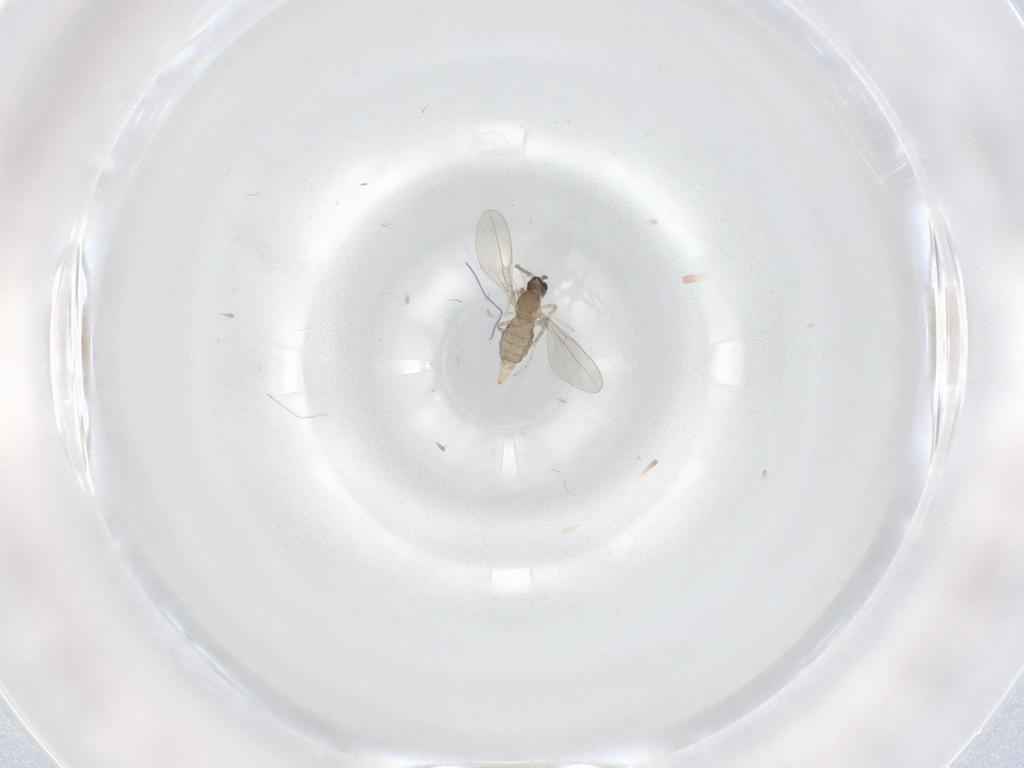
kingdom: Animalia
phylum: Arthropoda
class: Insecta
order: Diptera
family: Cecidomyiidae
